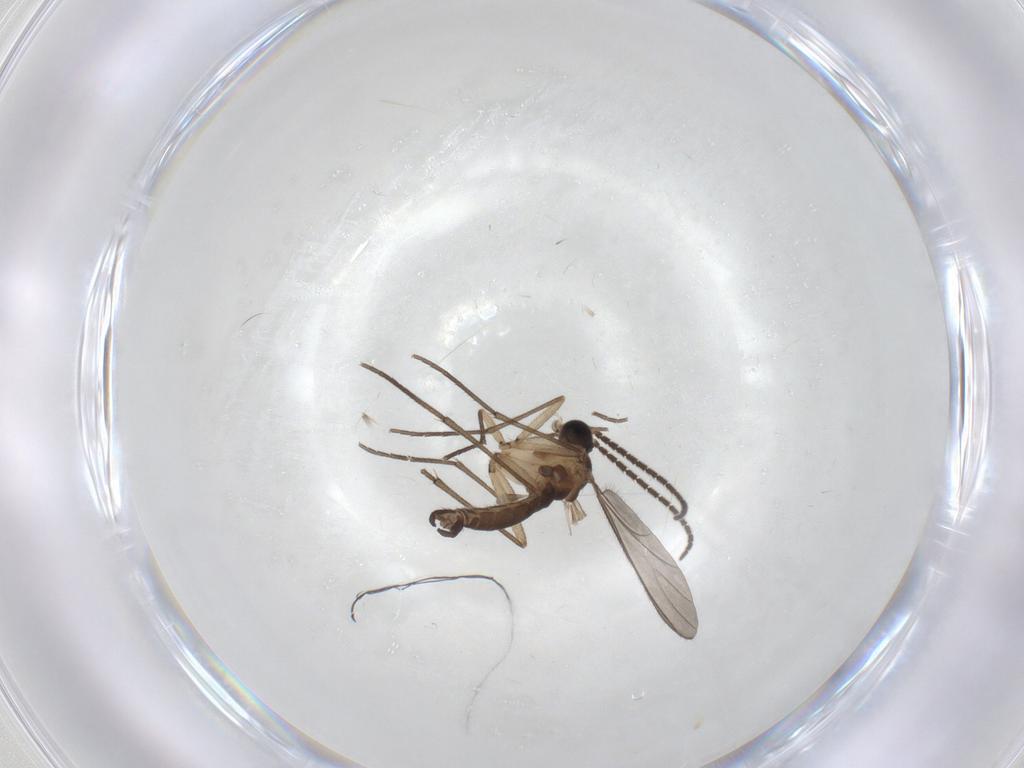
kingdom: Animalia
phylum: Arthropoda
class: Insecta
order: Diptera
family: Sciaridae
